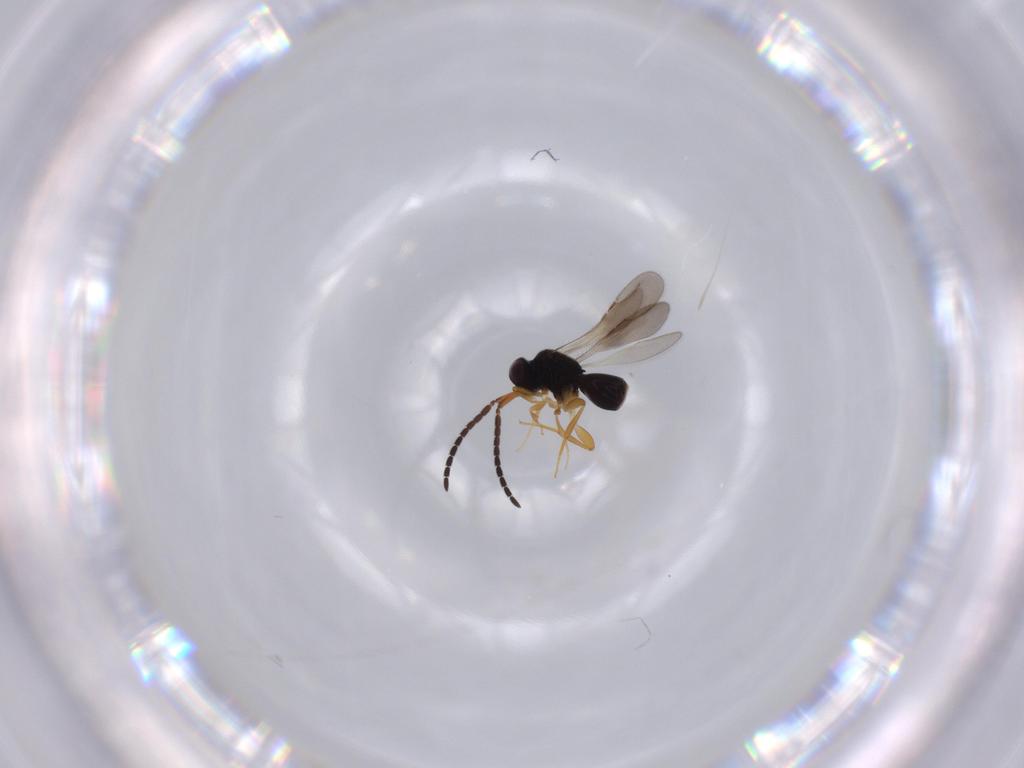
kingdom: Animalia
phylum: Arthropoda
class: Insecta
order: Hymenoptera
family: Ceraphronidae
